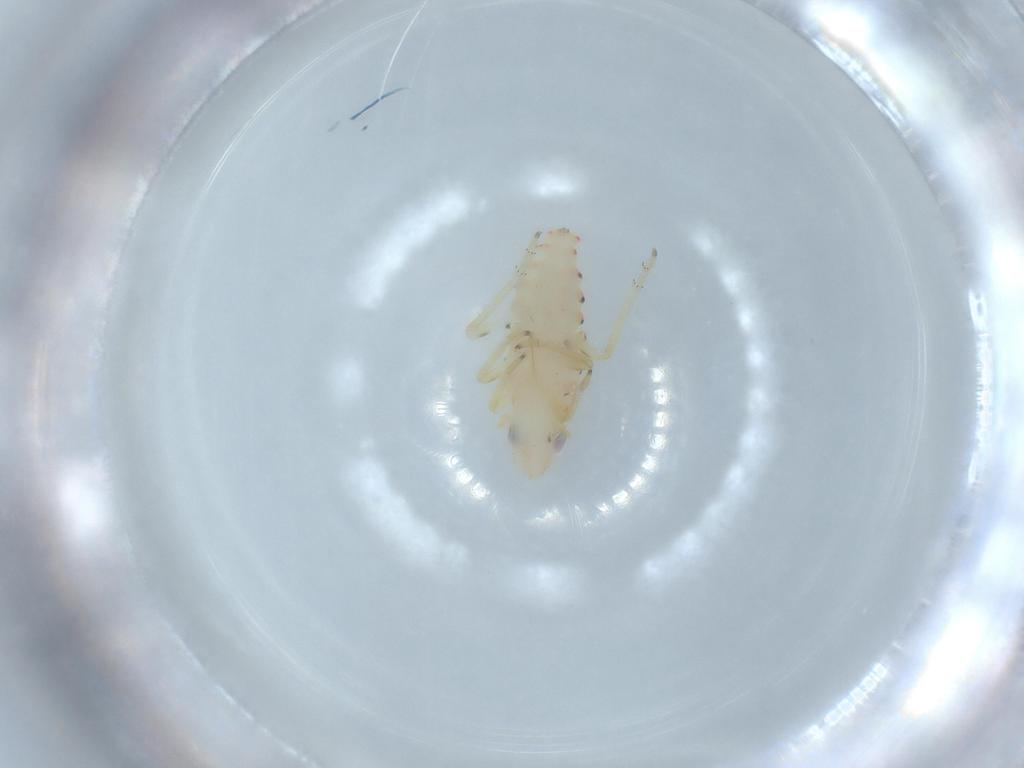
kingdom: Animalia
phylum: Arthropoda
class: Insecta
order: Hemiptera
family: Tropiduchidae
